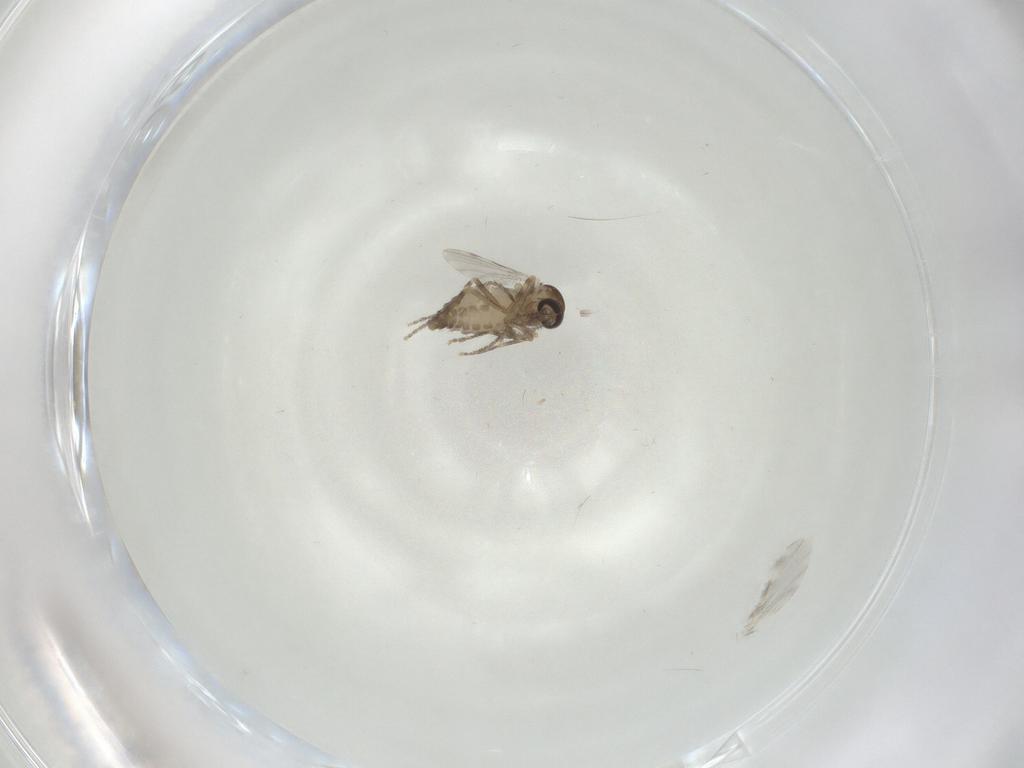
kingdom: Animalia
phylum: Arthropoda
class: Insecta
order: Diptera
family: Ceratopogonidae
